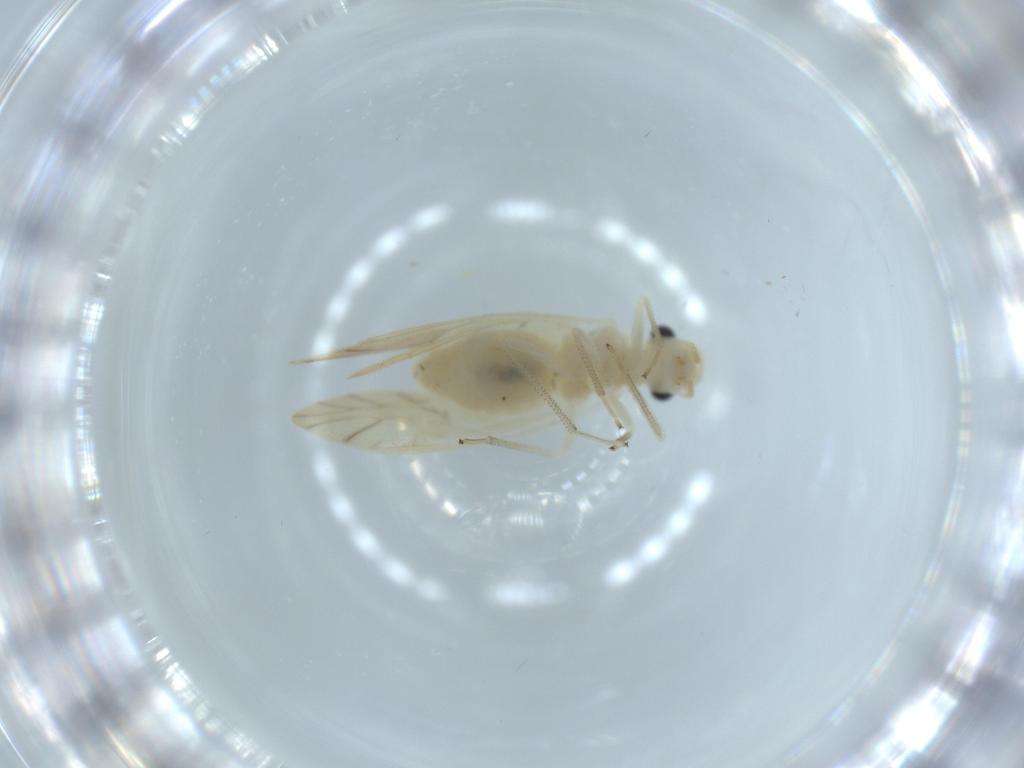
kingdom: Animalia
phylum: Arthropoda
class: Insecta
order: Psocodea
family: Caeciliusidae
